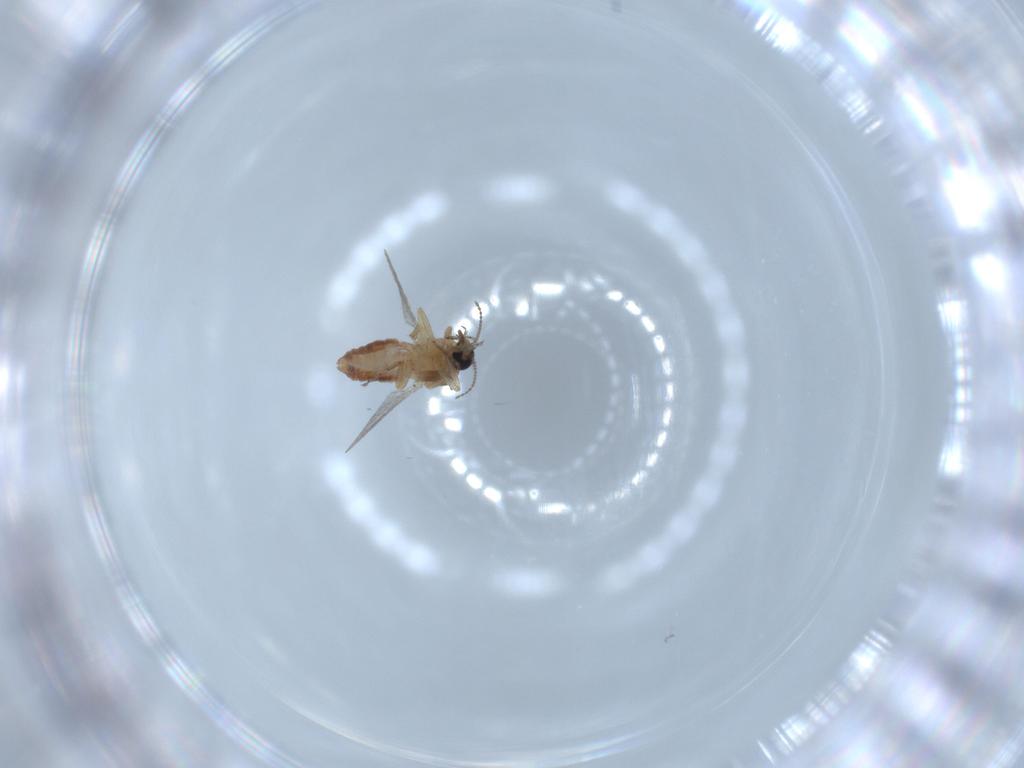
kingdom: Animalia
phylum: Arthropoda
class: Insecta
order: Diptera
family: Ceratopogonidae
